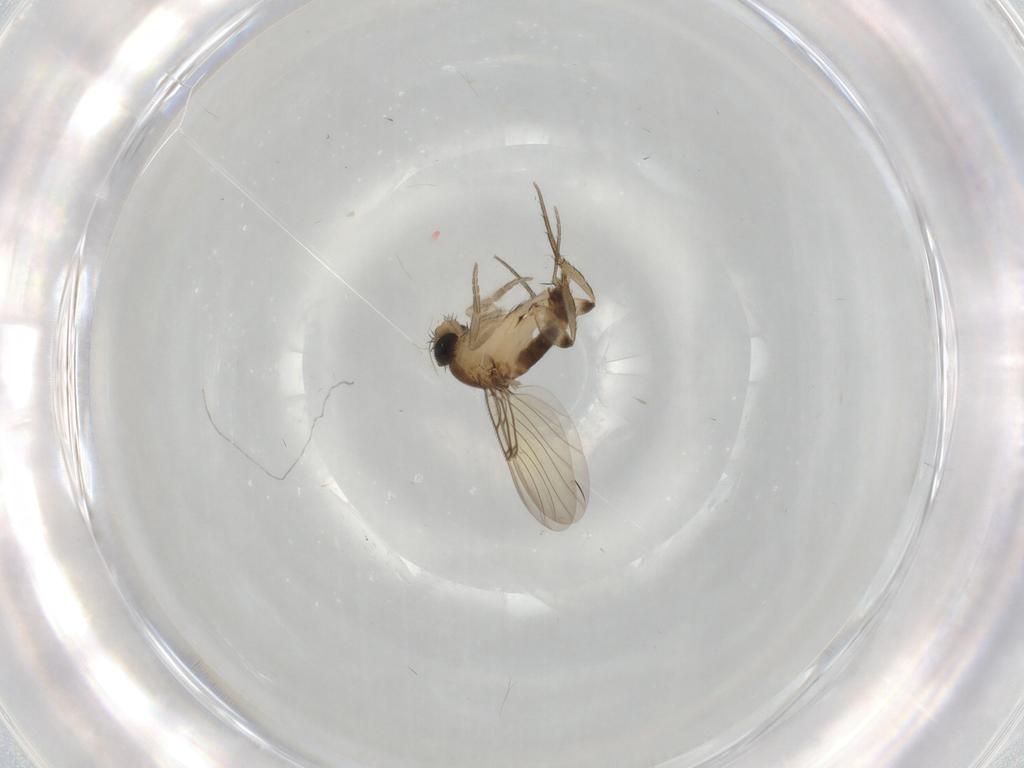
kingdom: Animalia
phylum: Arthropoda
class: Insecta
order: Diptera
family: Phoridae
